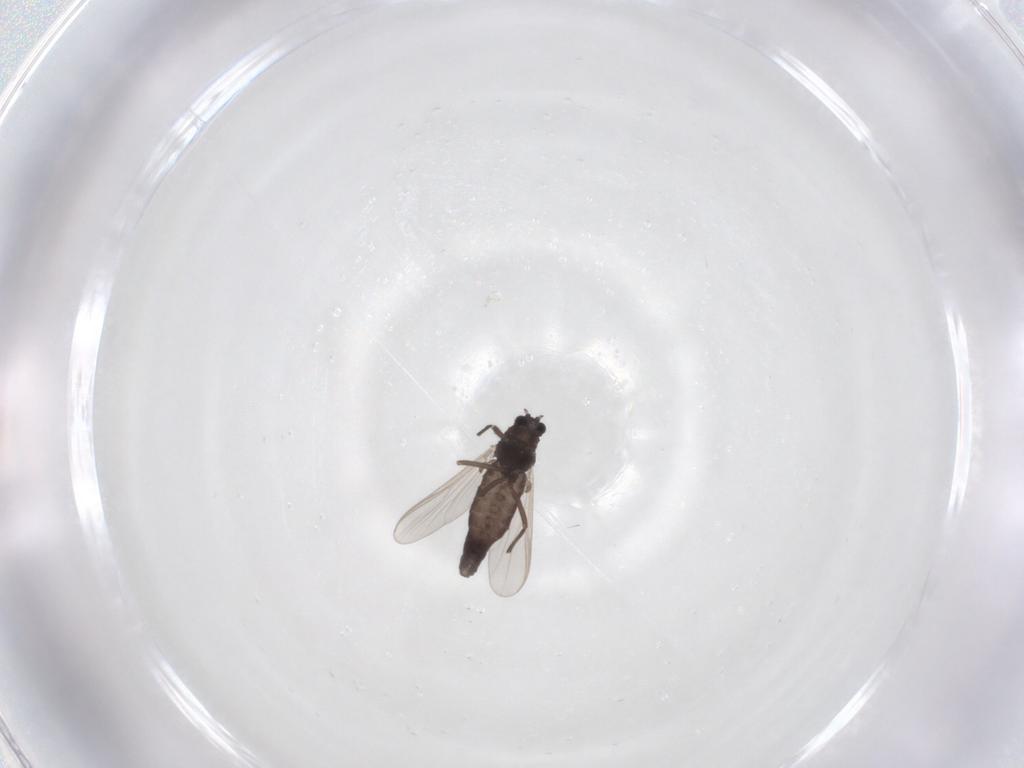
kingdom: Animalia
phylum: Arthropoda
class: Insecta
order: Diptera
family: Chironomidae
